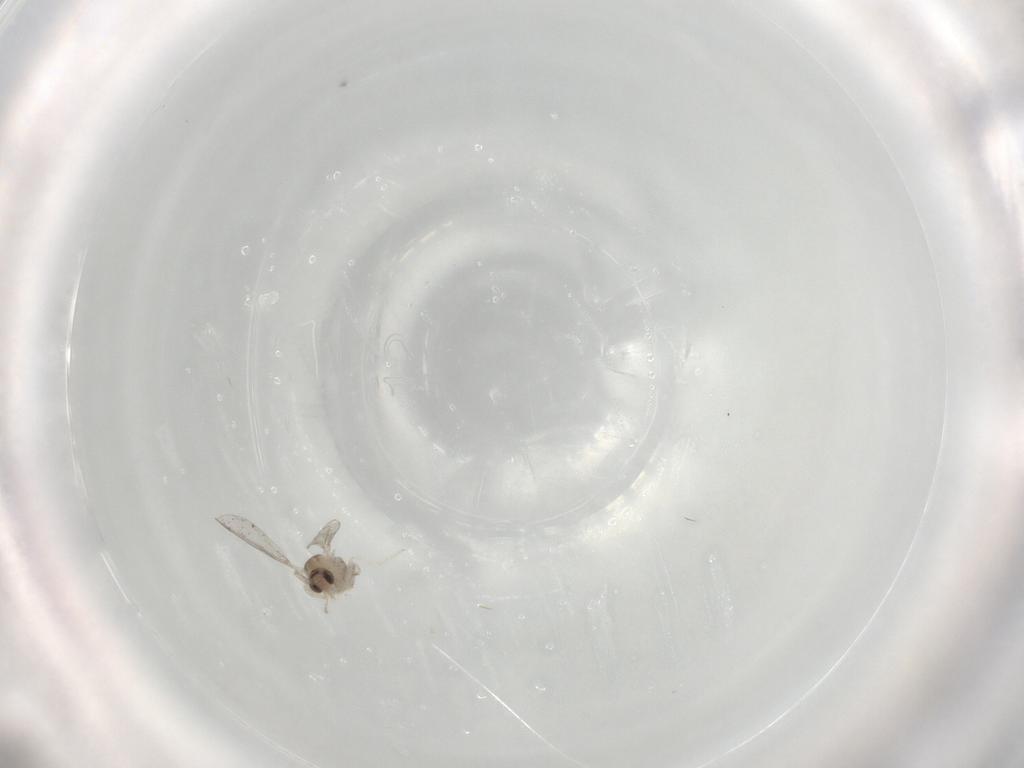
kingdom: Animalia
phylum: Arthropoda
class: Insecta
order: Diptera
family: Cecidomyiidae
